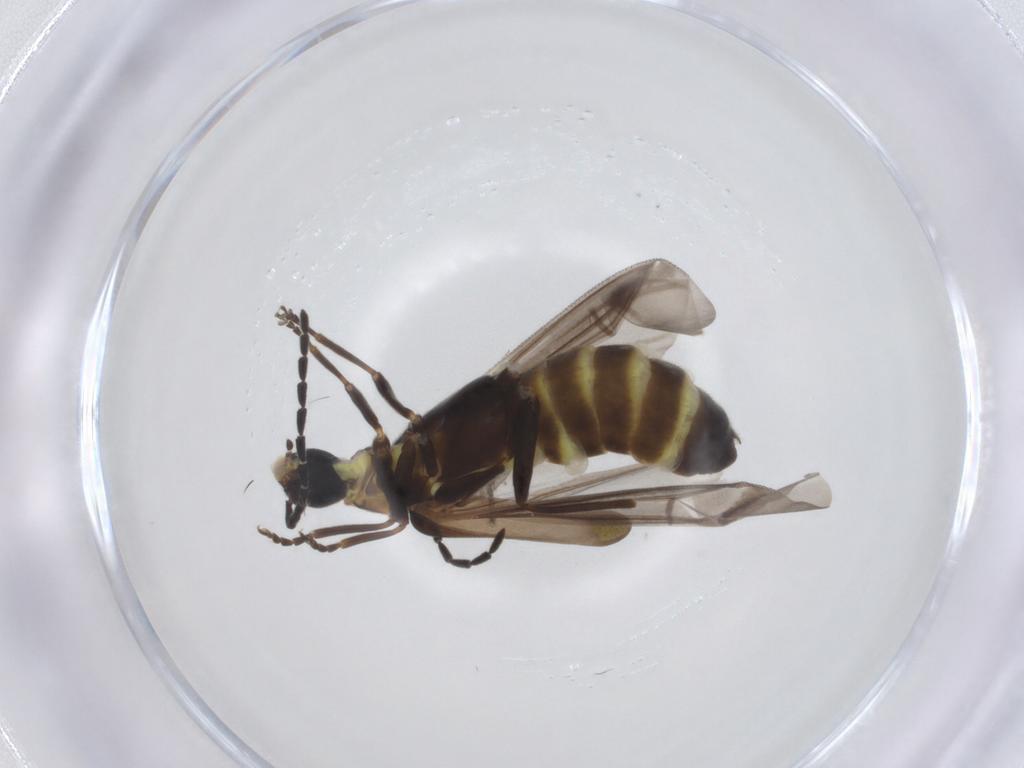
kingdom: Animalia
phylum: Arthropoda
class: Insecta
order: Coleoptera
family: Cantharidae
